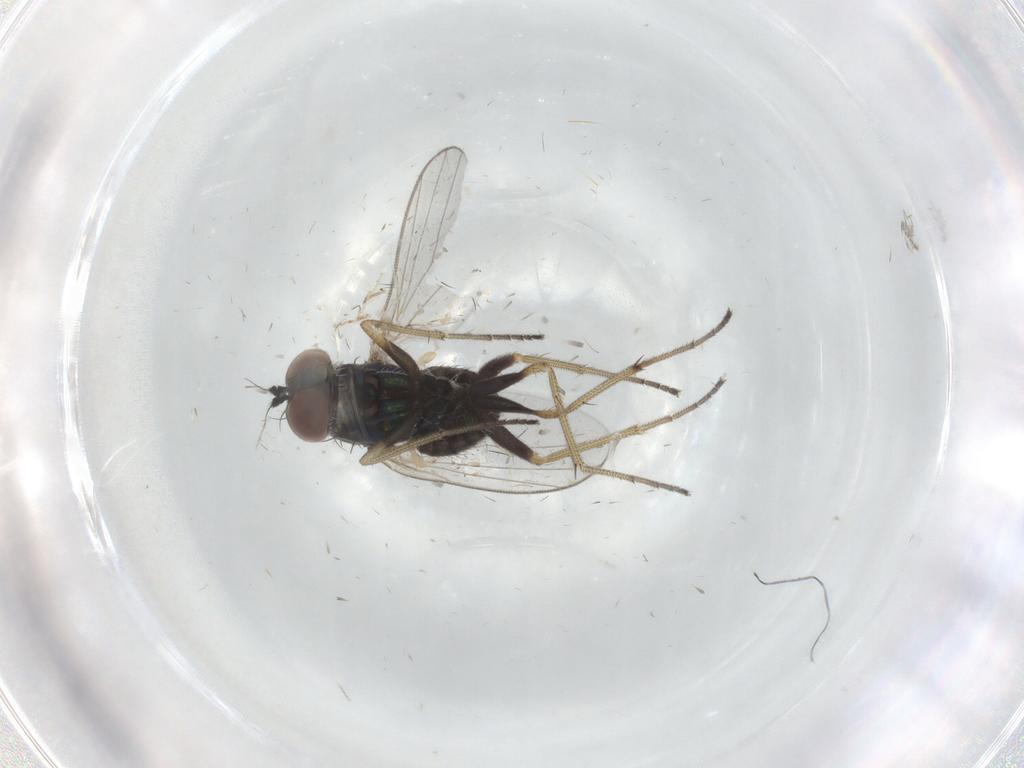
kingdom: Animalia
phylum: Arthropoda
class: Insecta
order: Diptera
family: Dolichopodidae
